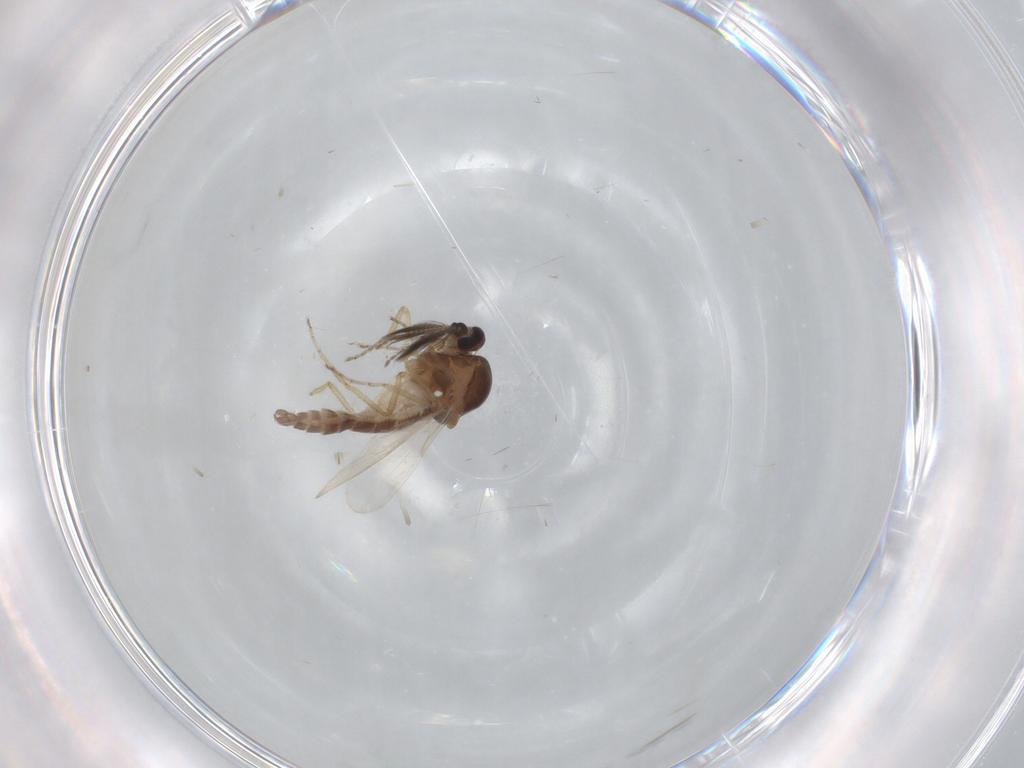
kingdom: Animalia
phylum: Arthropoda
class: Insecta
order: Diptera
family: Ceratopogonidae
